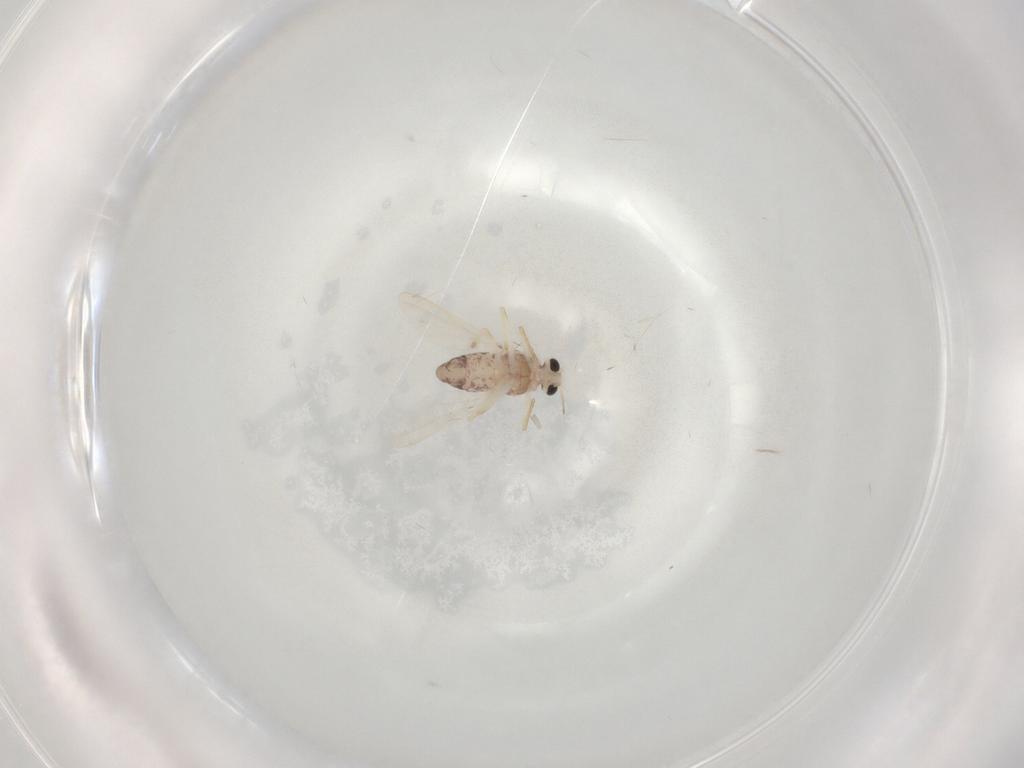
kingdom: Animalia
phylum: Arthropoda
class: Insecta
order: Diptera
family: Chironomidae
